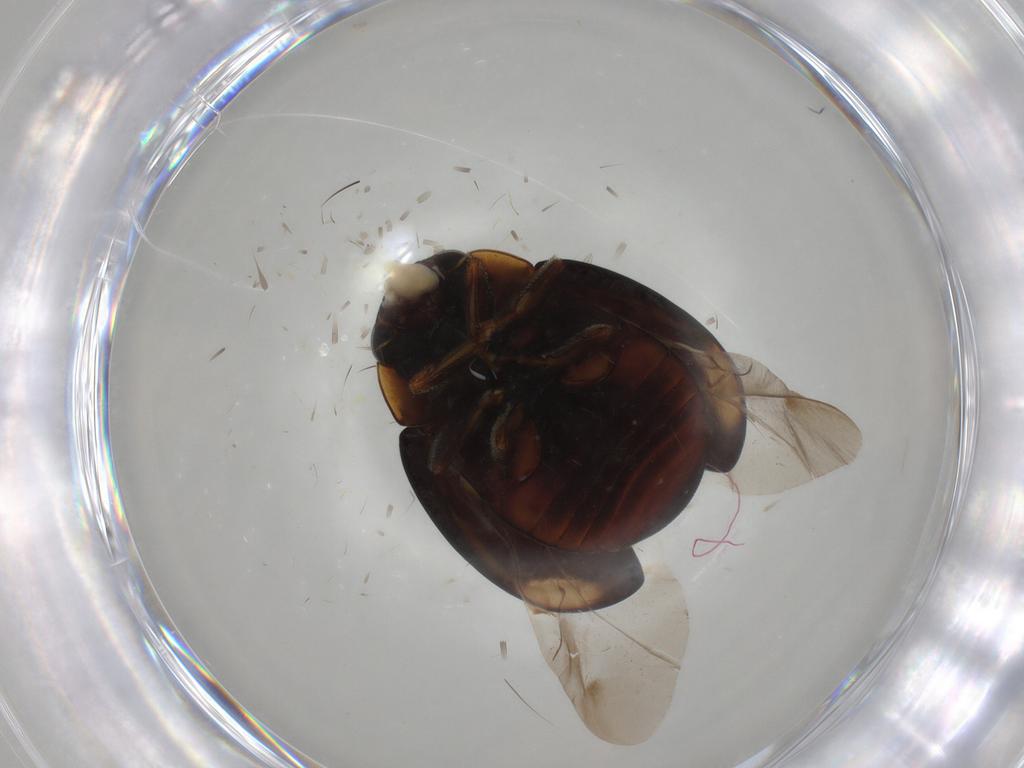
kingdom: Animalia
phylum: Arthropoda
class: Insecta
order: Coleoptera
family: Coccinellidae
